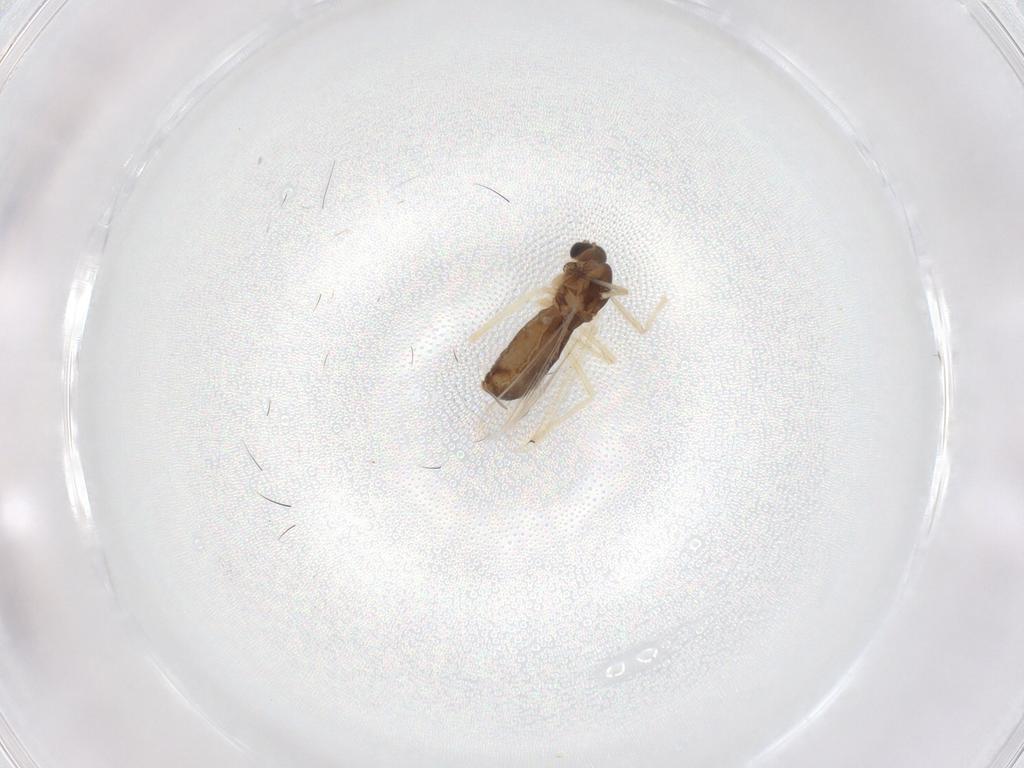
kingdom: Animalia
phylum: Arthropoda
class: Insecta
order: Diptera
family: Chironomidae
